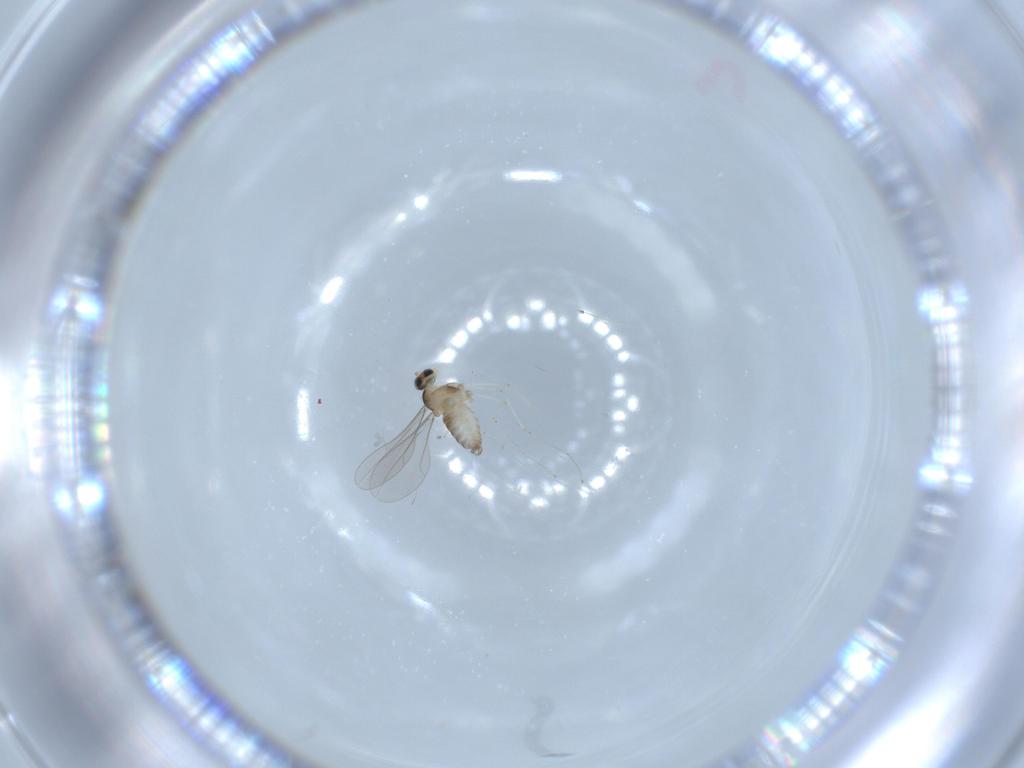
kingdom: Animalia
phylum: Arthropoda
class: Insecta
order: Diptera
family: Cecidomyiidae
